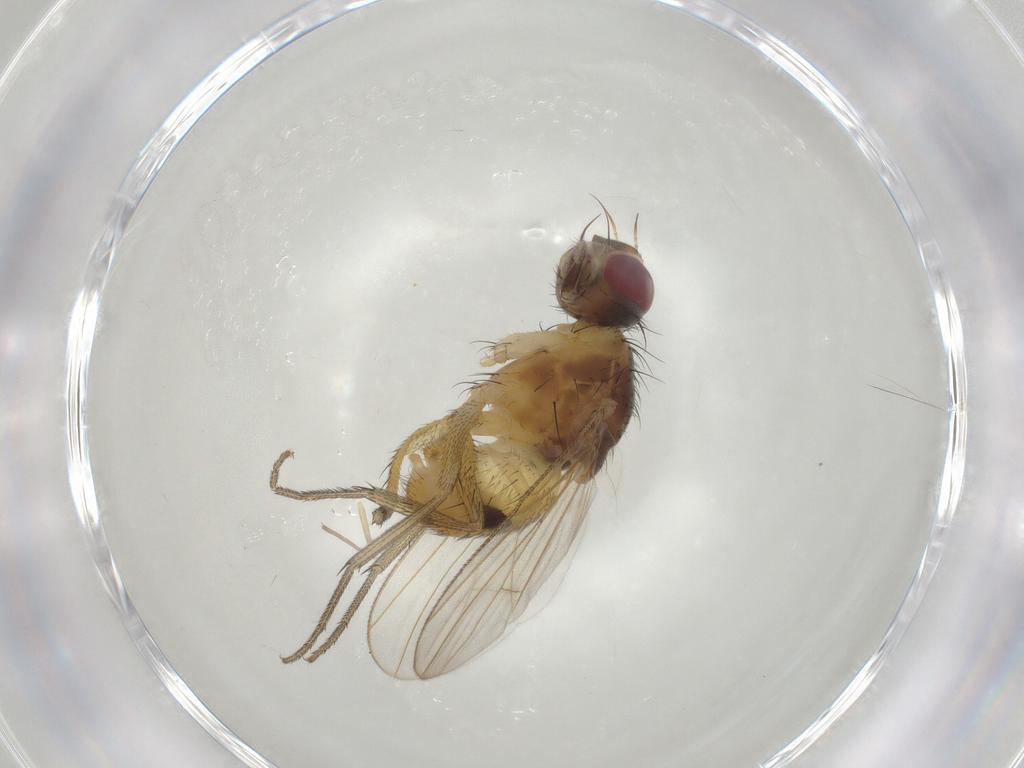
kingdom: Animalia
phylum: Arthropoda
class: Insecta
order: Diptera
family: Muscidae
